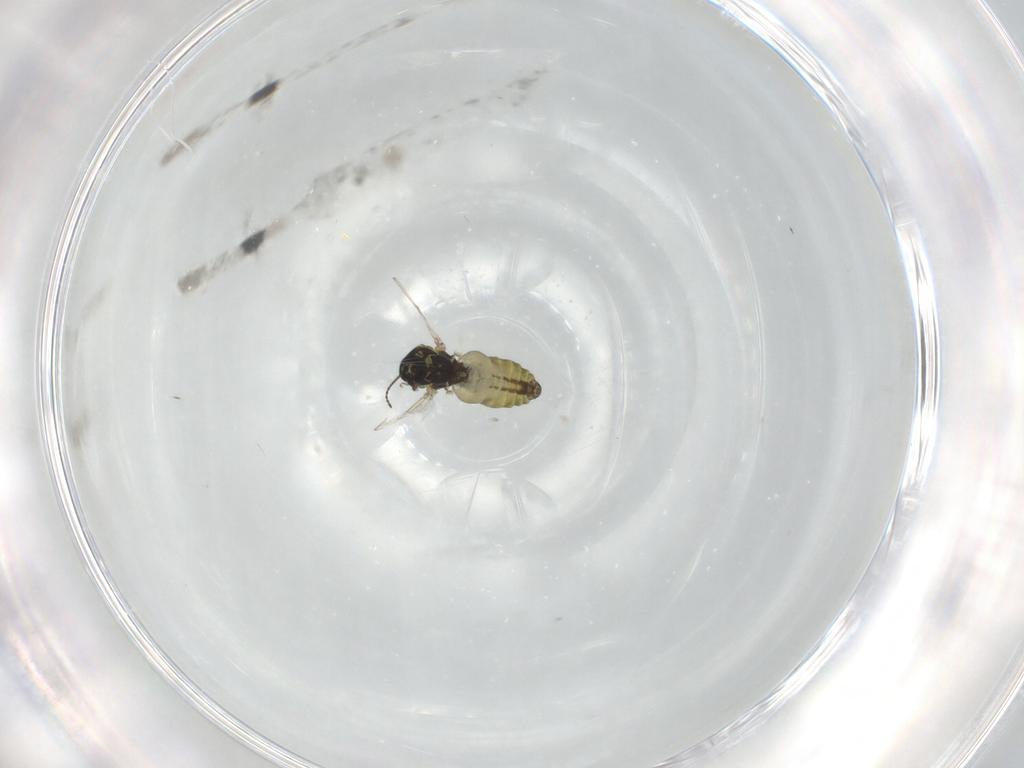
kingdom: Animalia
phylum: Arthropoda
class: Insecta
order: Diptera
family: Ceratopogonidae
